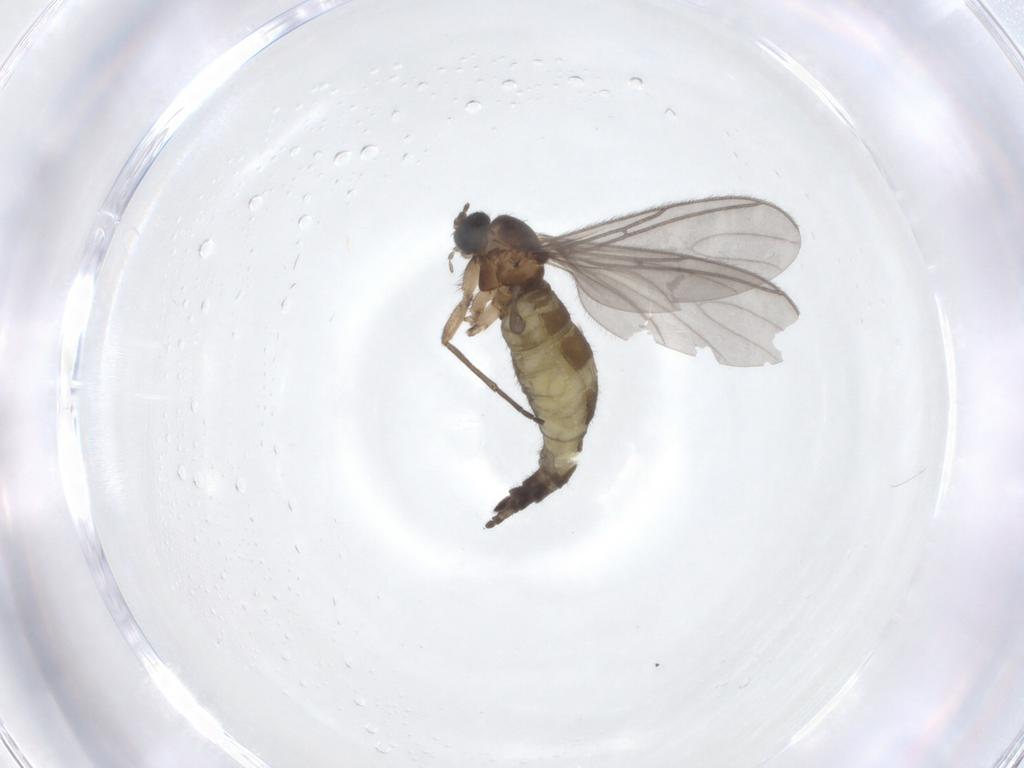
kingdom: Animalia
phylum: Arthropoda
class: Insecta
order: Diptera
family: Sciaridae
